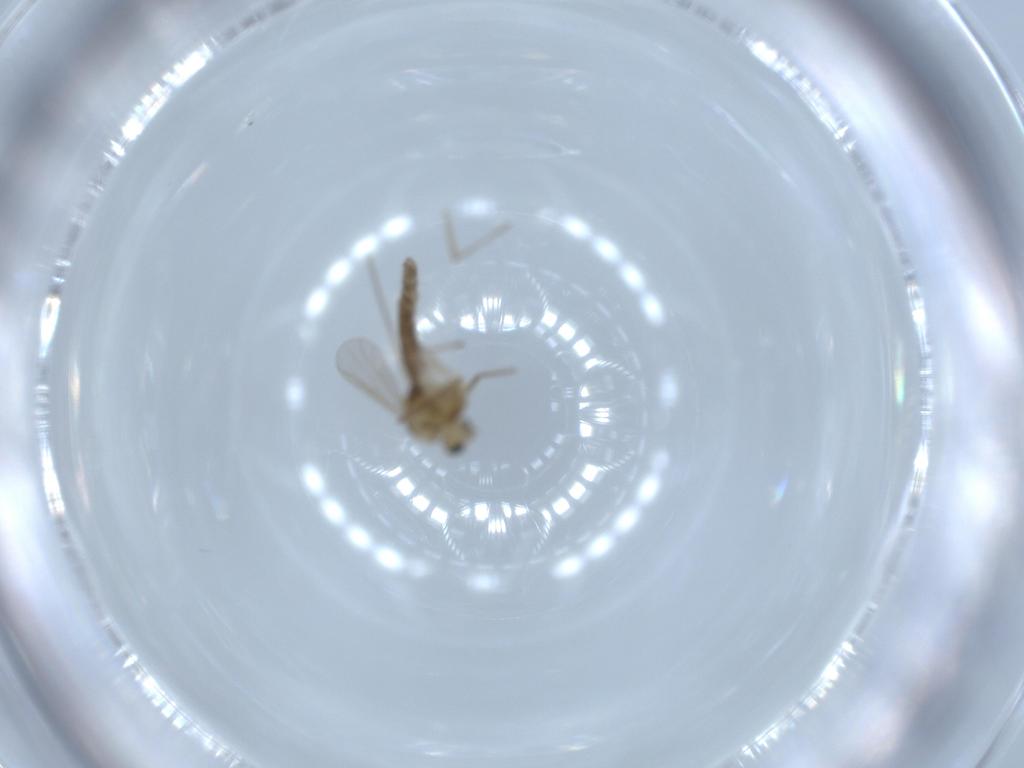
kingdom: Animalia
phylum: Arthropoda
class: Insecta
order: Diptera
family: Chironomidae
